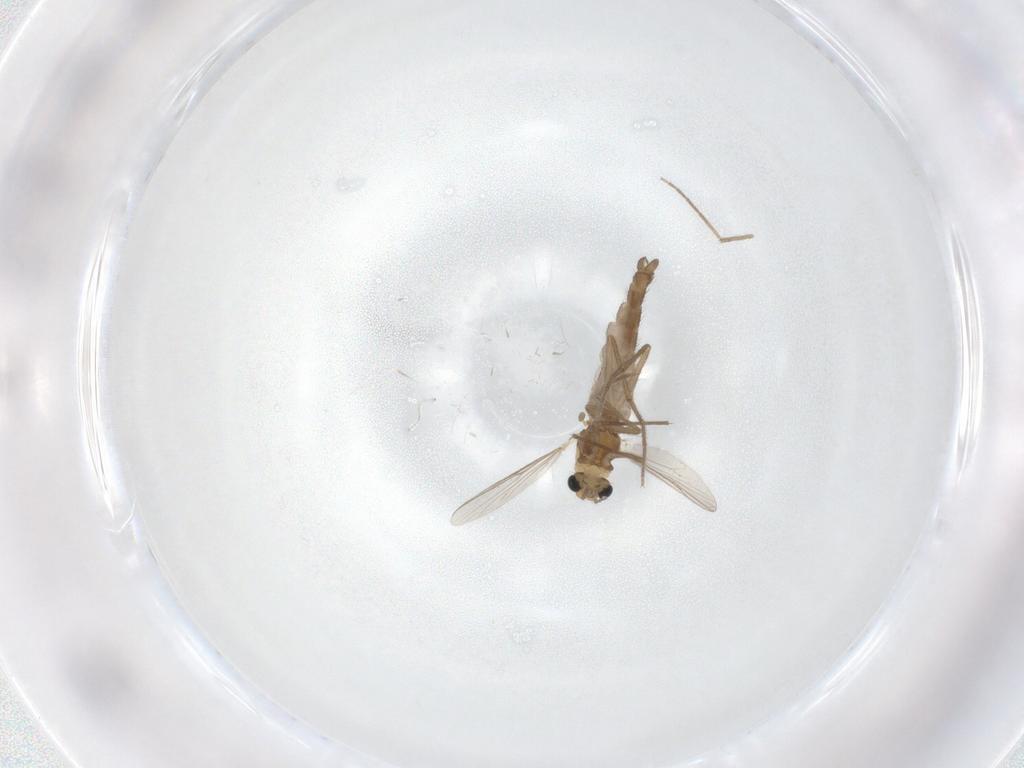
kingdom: Animalia
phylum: Arthropoda
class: Insecta
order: Diptera
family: Chironomidae
